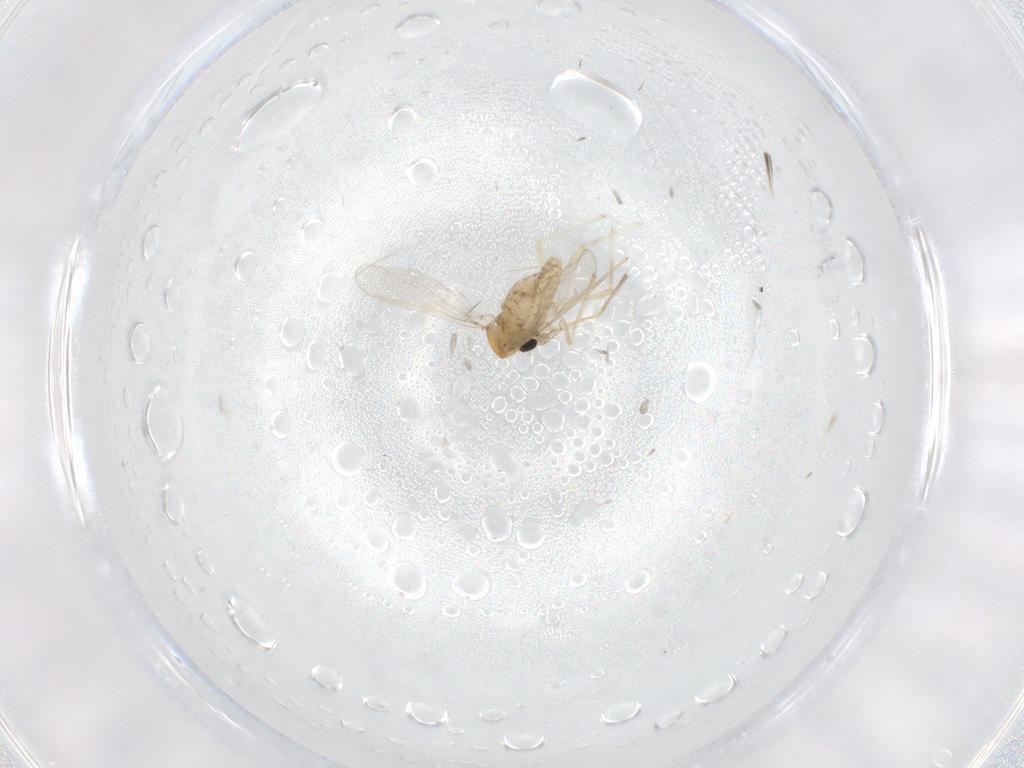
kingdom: Animalia
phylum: Arthropoda
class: Insecta
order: Diptera
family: Chironomidae
